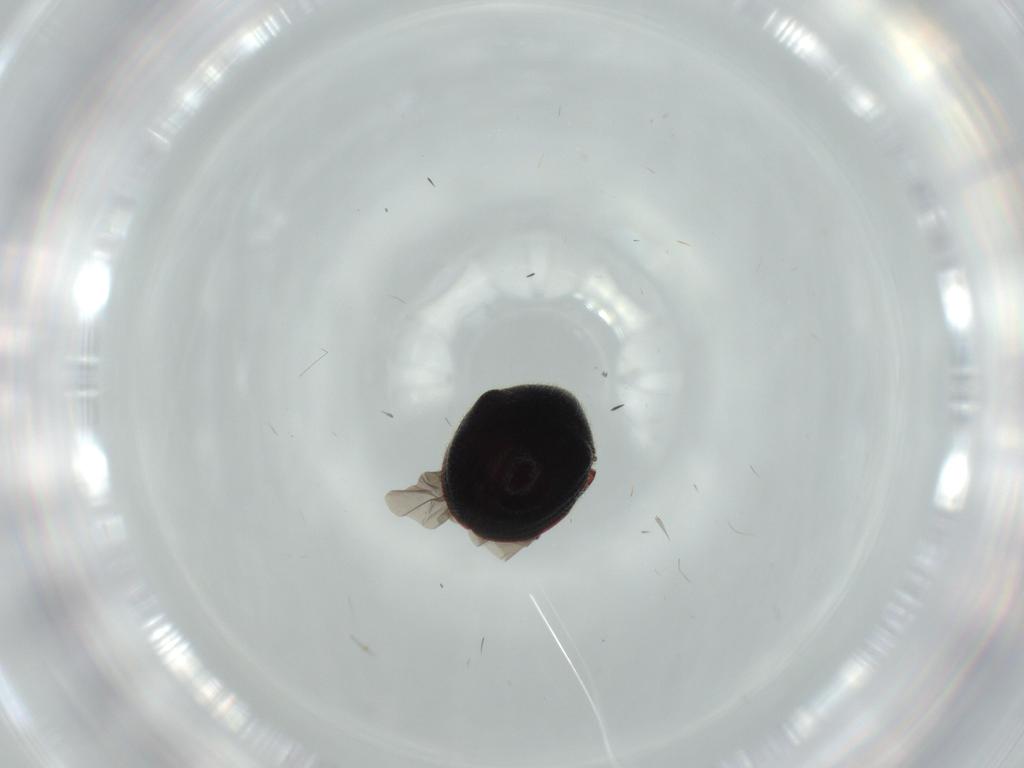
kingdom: Animalia
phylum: Arthropoda
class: Insecta
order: Coleoptera
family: Ptinidae
